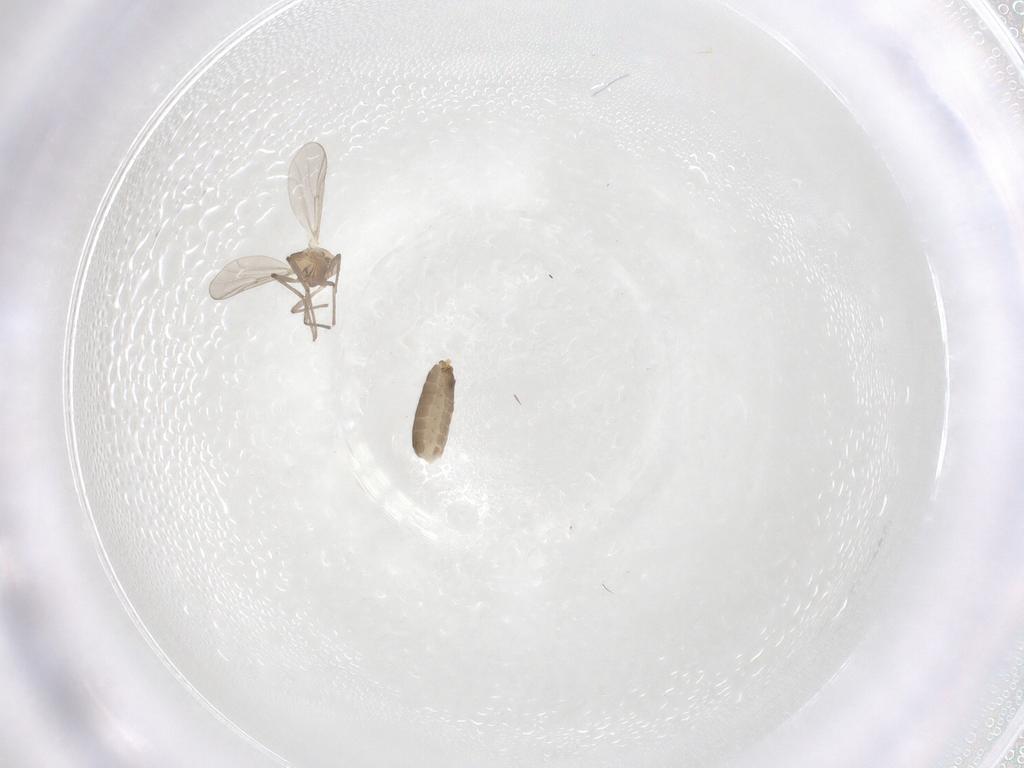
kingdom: Animalia
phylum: Arthropoda
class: Insecta
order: Diptera
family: Chironomidae
